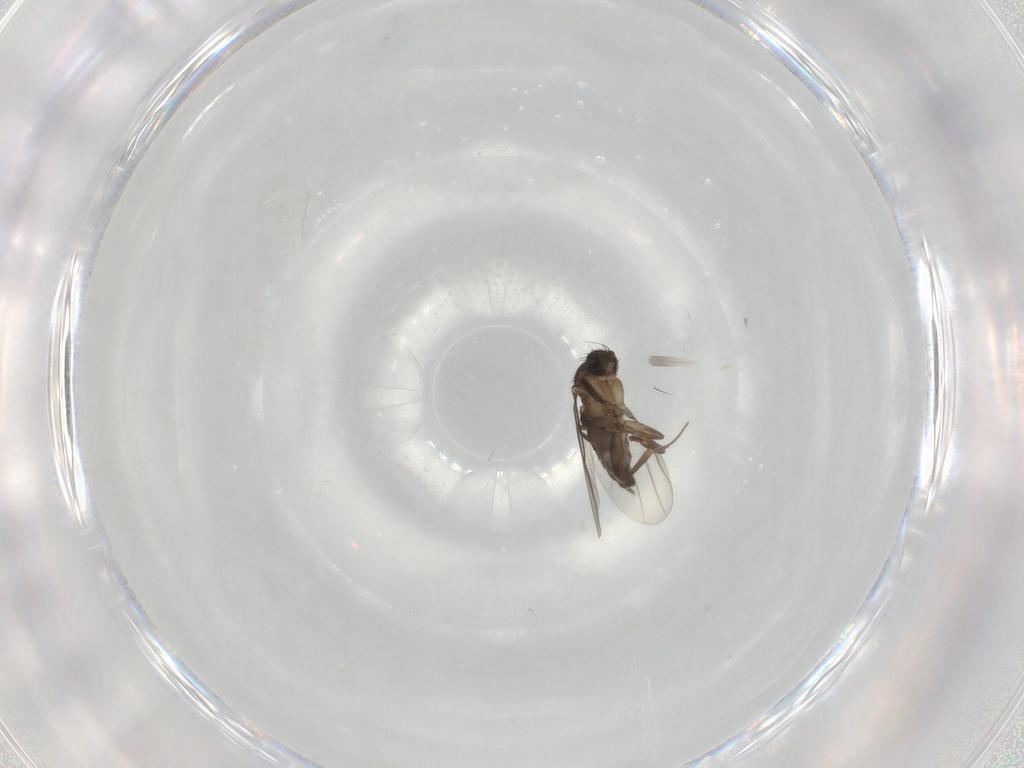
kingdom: Animalia
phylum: Arthropoda
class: Insecta
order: Diptera
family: Phoridae
